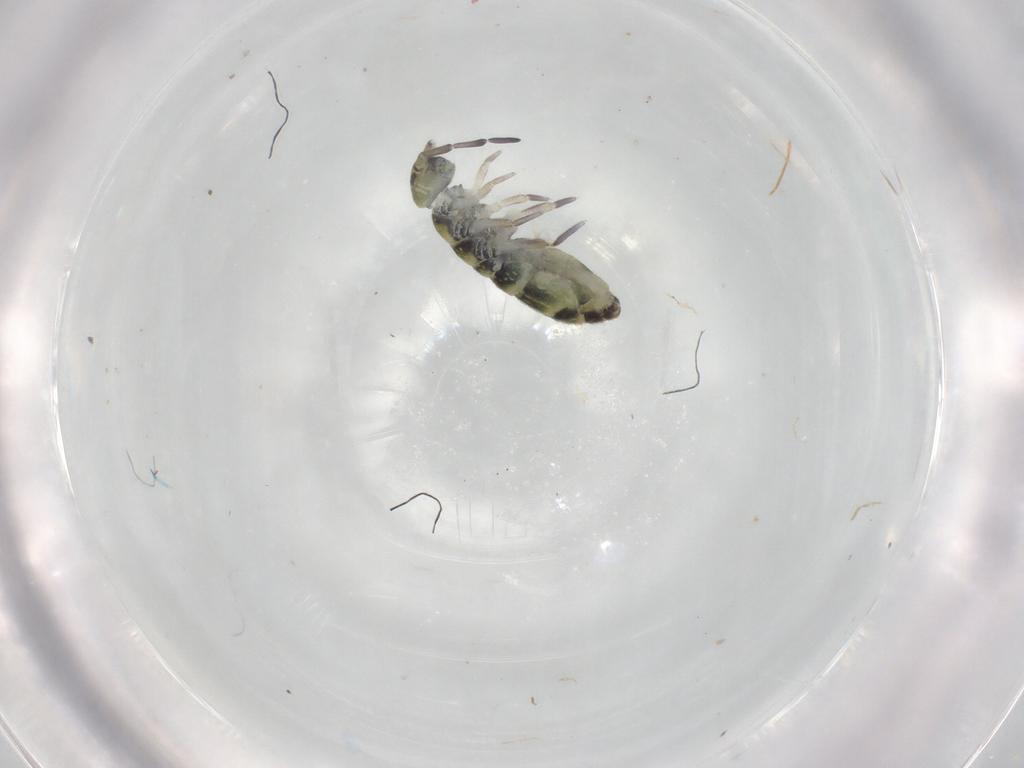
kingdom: Animalia
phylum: Arthropoda
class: Collembola
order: Entomobryomorpha
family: Isotomidae
